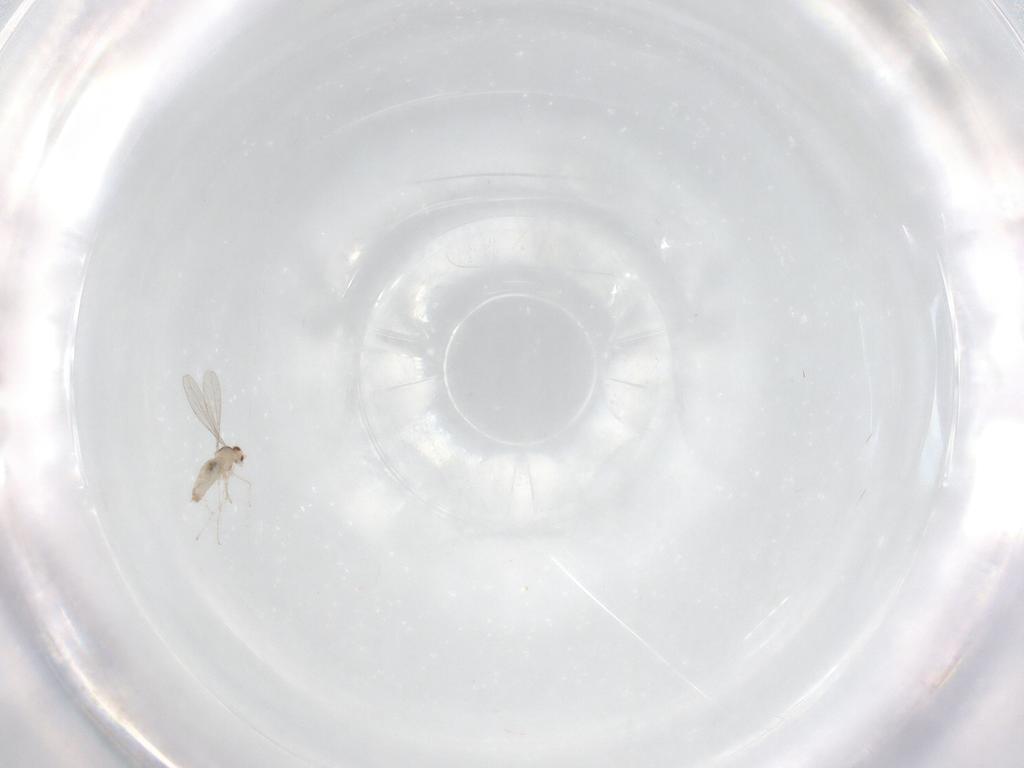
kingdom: Animalia
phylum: Arthropoda
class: Insecta
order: Diptera
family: Cecidomyiidae
